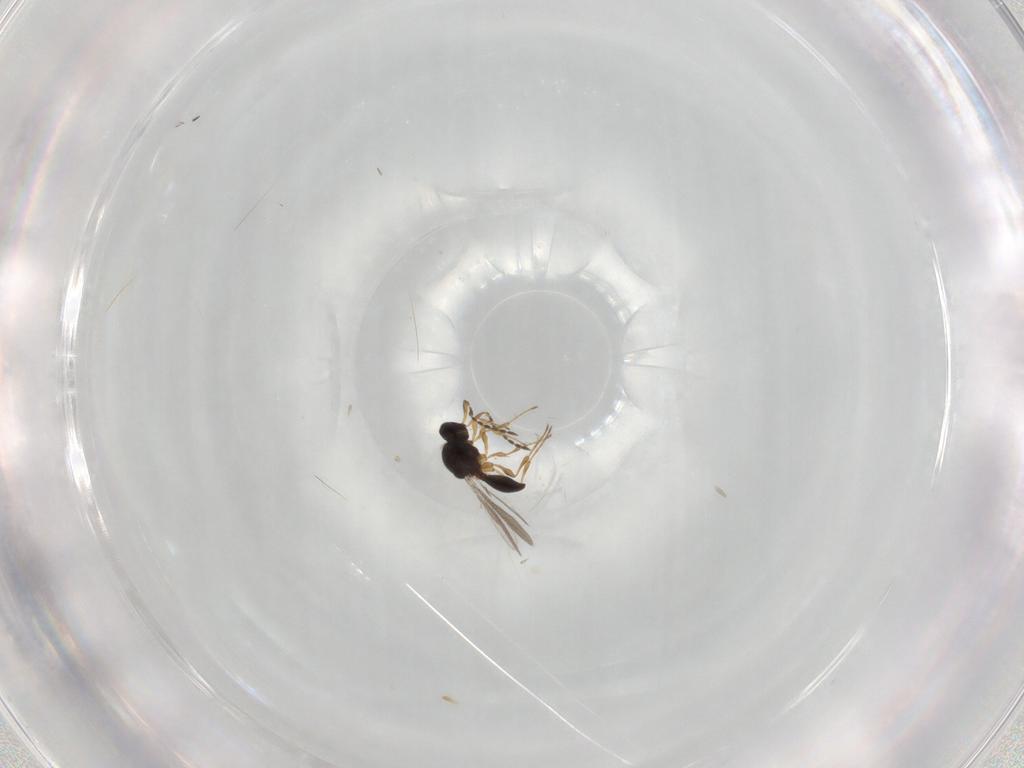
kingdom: Animalia
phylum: Arthropoda
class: Insecta
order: Hymenoptera
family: Platygastridae
